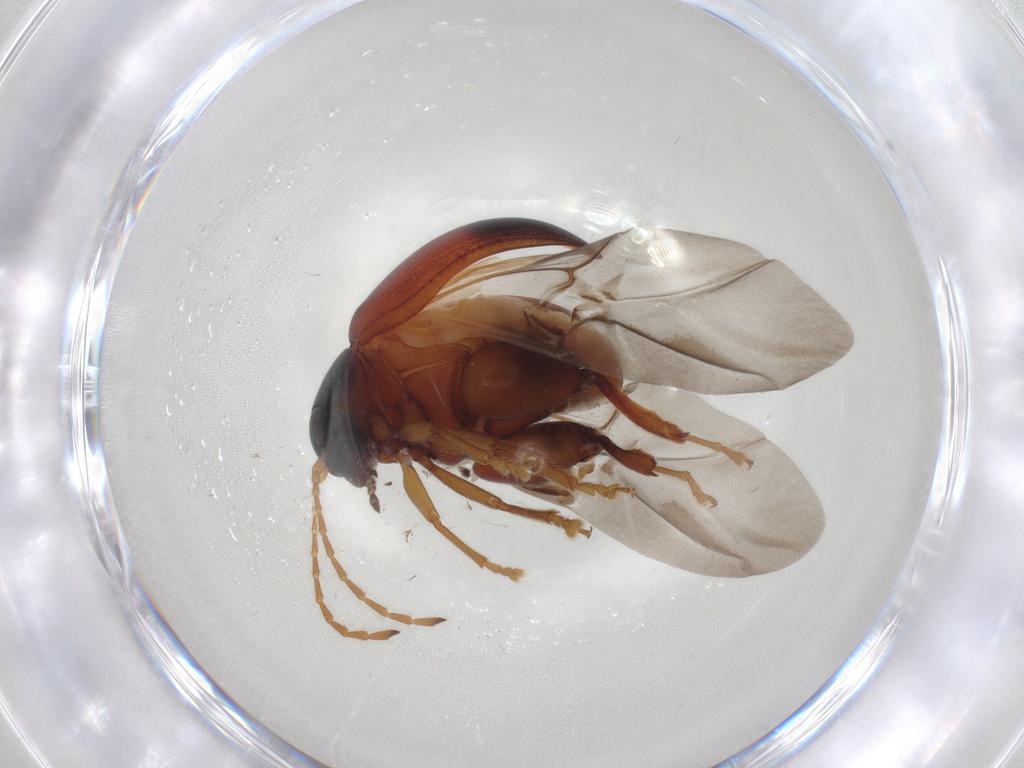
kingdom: Animalia
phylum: Arthropoda
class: Insecta
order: Coleoptera
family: Chrysomelidae
